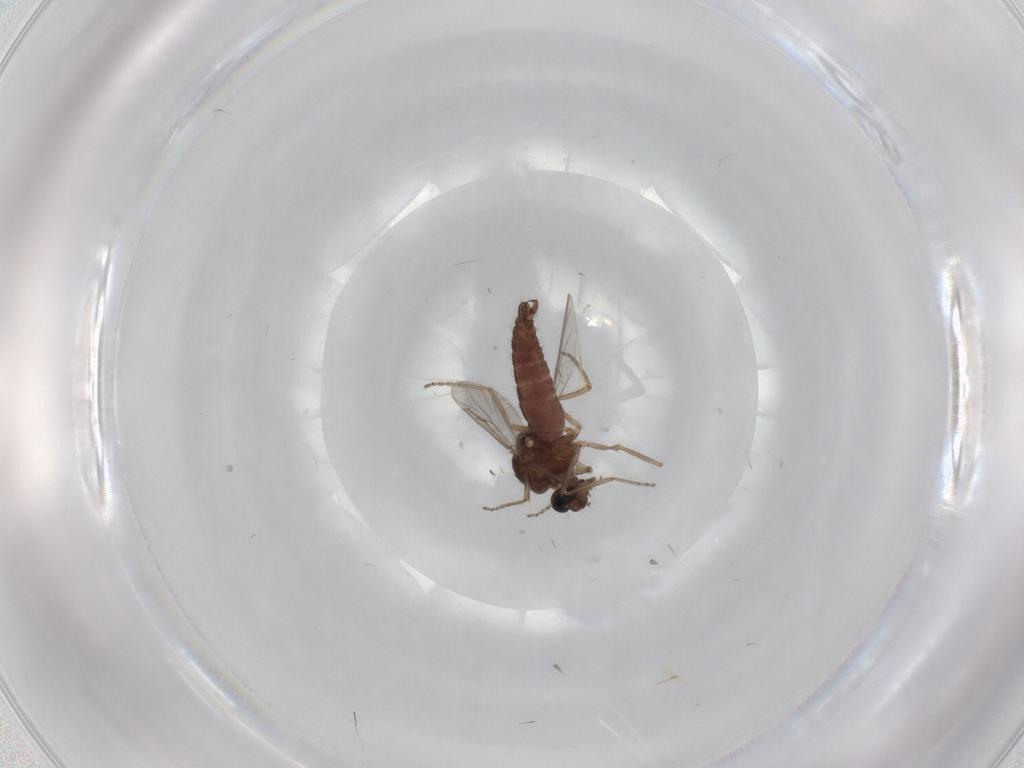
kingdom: Animalia
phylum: Arthropoda
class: Insecta
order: Diptera
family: Ceratopogonidae
